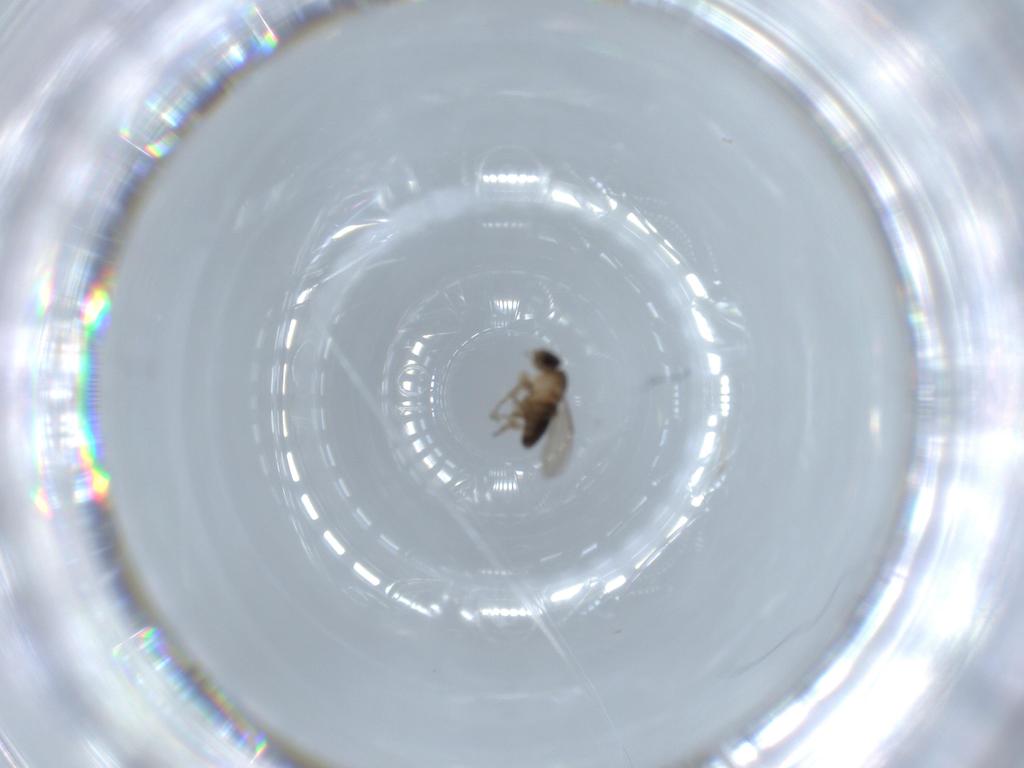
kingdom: Animalia
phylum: Arthropoda
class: Insecta
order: Diptera
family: Phoridae
